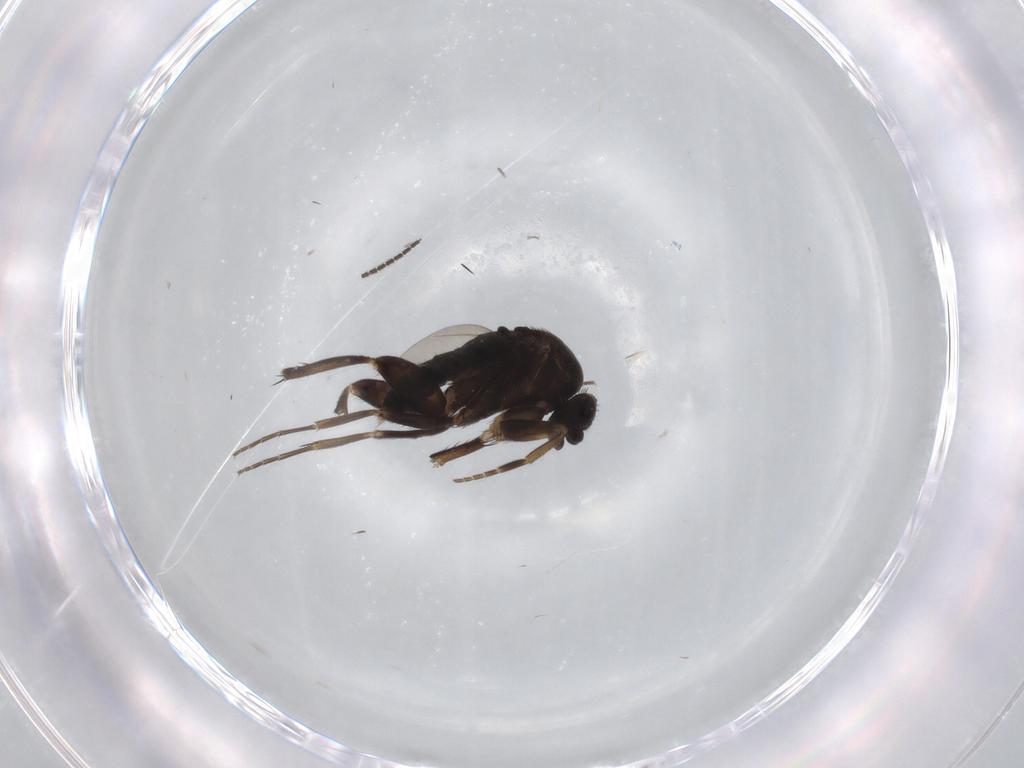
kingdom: Animalia
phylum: Arthropoda
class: Insecta
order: Diptera
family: Phoridae
